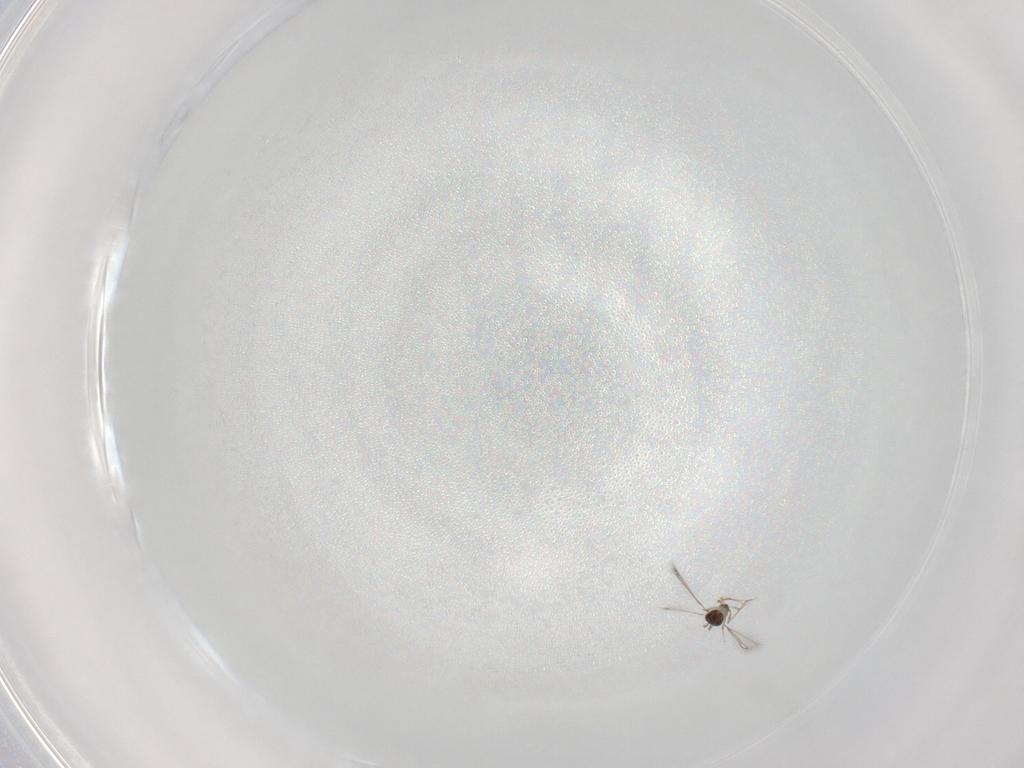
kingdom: Animalia
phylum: Arthropoda
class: Insecta
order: Hymenoptera
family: Mymaridae
